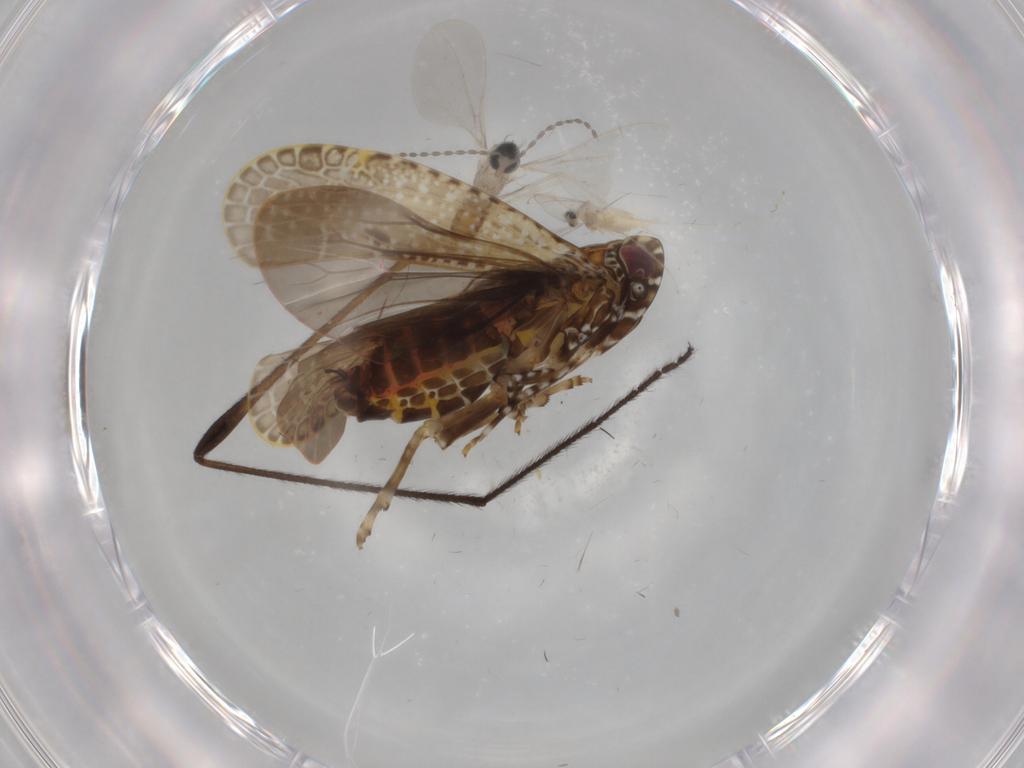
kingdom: Animalia
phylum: Arthropoda
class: Insecta
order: Diptera
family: Cecidomyiidae
